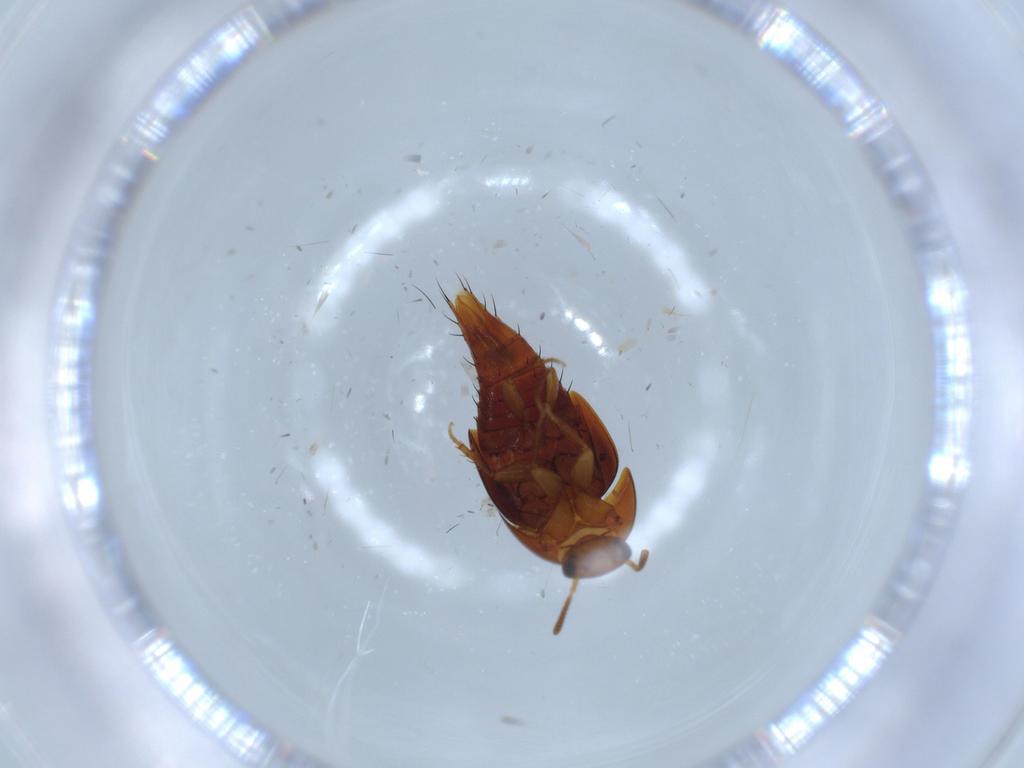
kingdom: Animalia
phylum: Arthropoda
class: Insecta
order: Coleoptera
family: Staphylinidae
